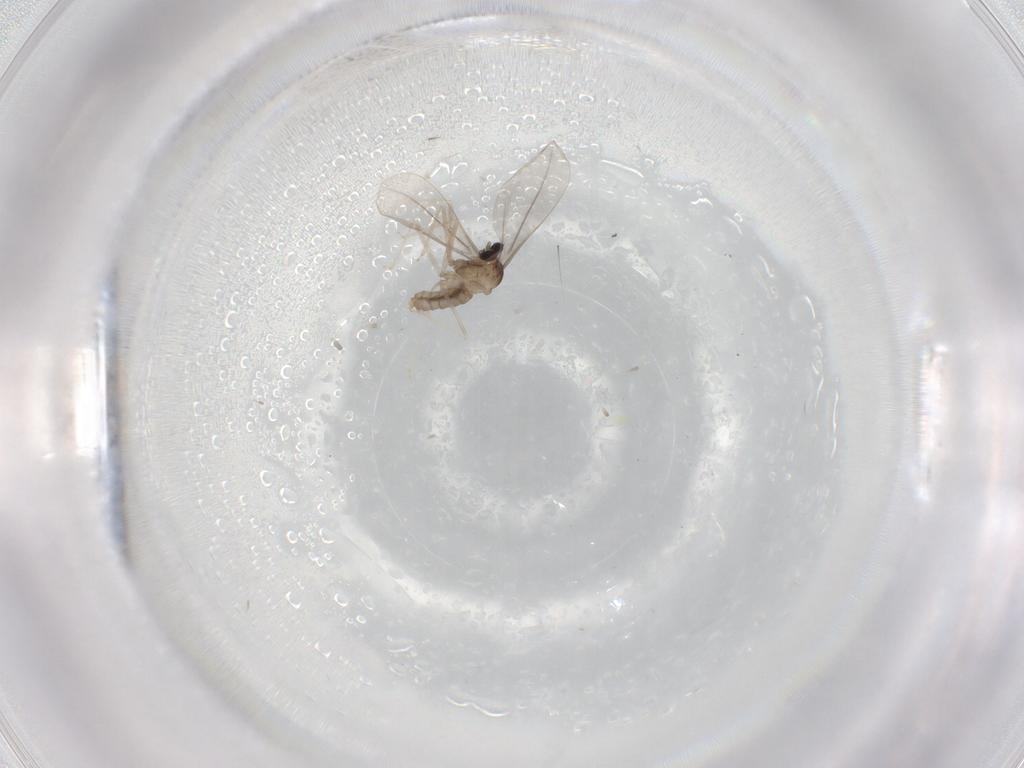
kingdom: Animalia
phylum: Arthropoda
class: Insecta
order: Diptera
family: Cecidomyiidae
